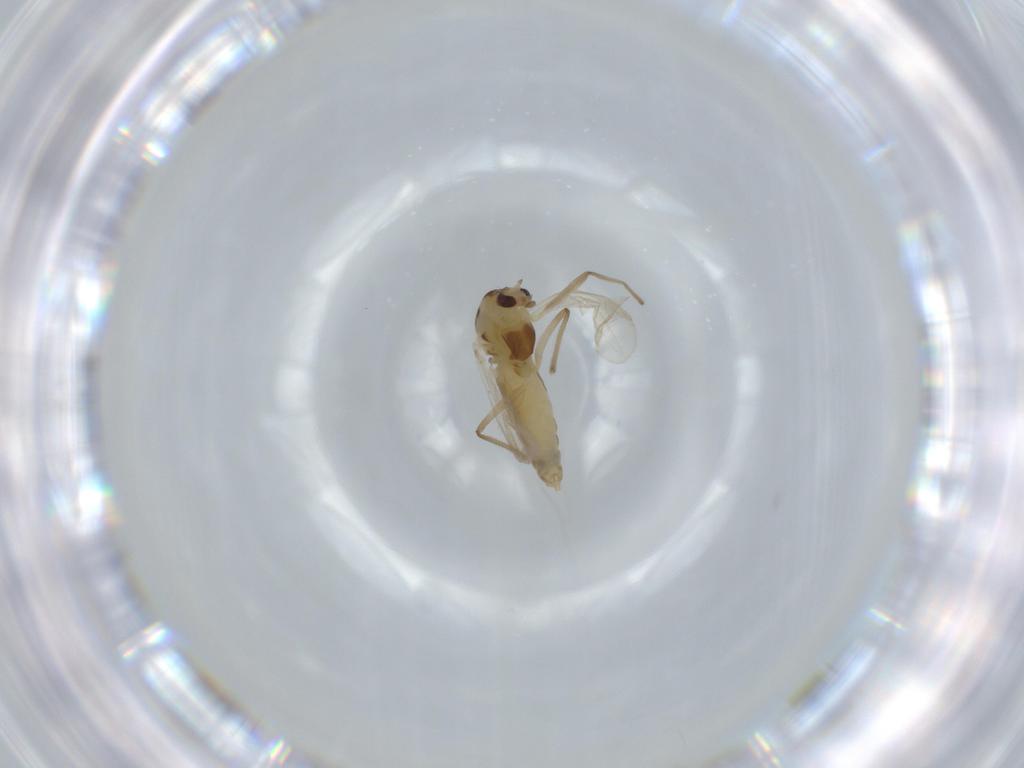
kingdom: Animalia
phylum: Arthropoda
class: Insecta
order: Diptera
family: Chironomidae
